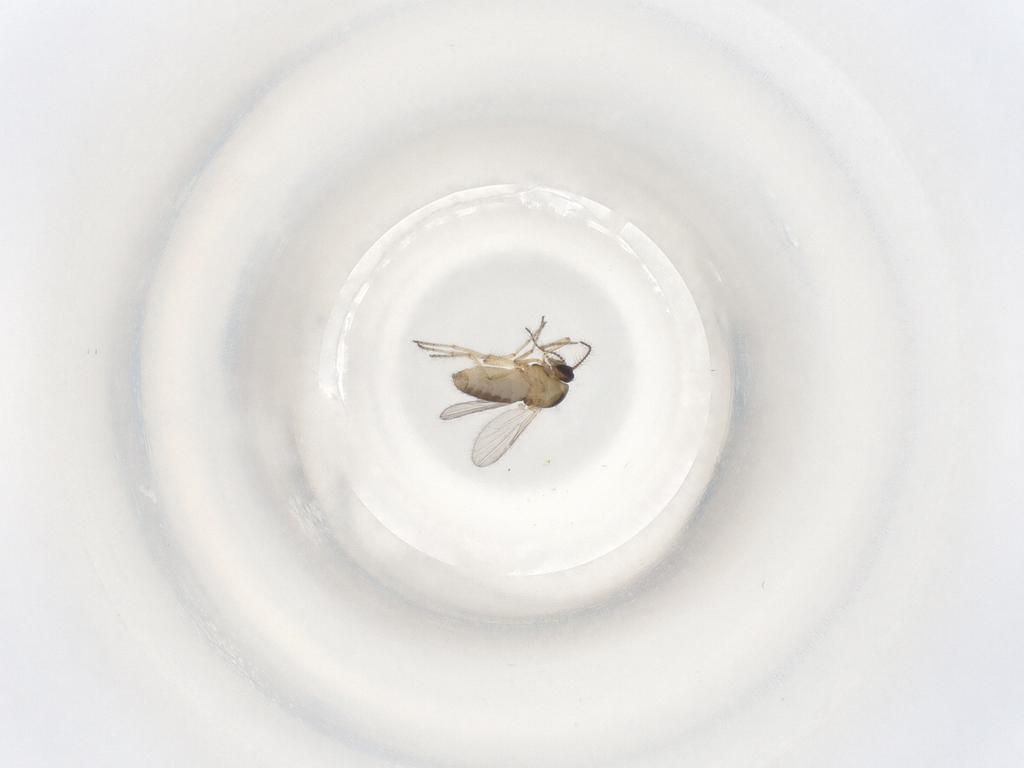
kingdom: Animalia
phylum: Arthropoda
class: Insecta
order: Diptera
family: Ceratopogonidae
